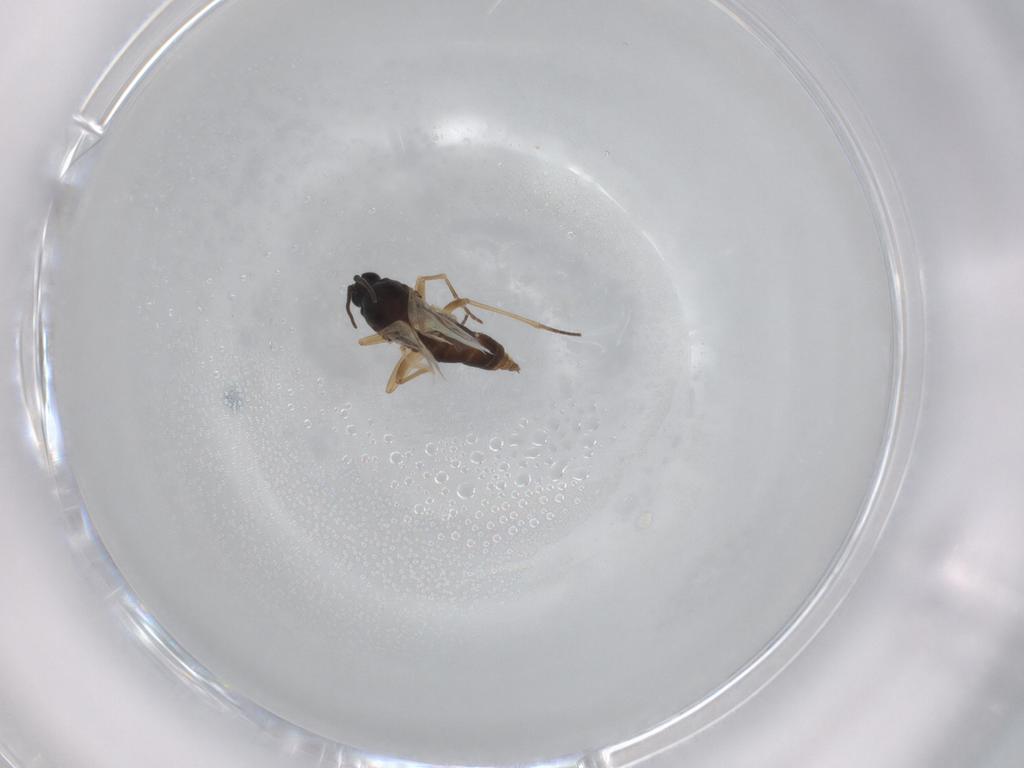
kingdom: Animalia
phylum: Arthropoda
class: Insecta
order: Diptera
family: Sciaridae
